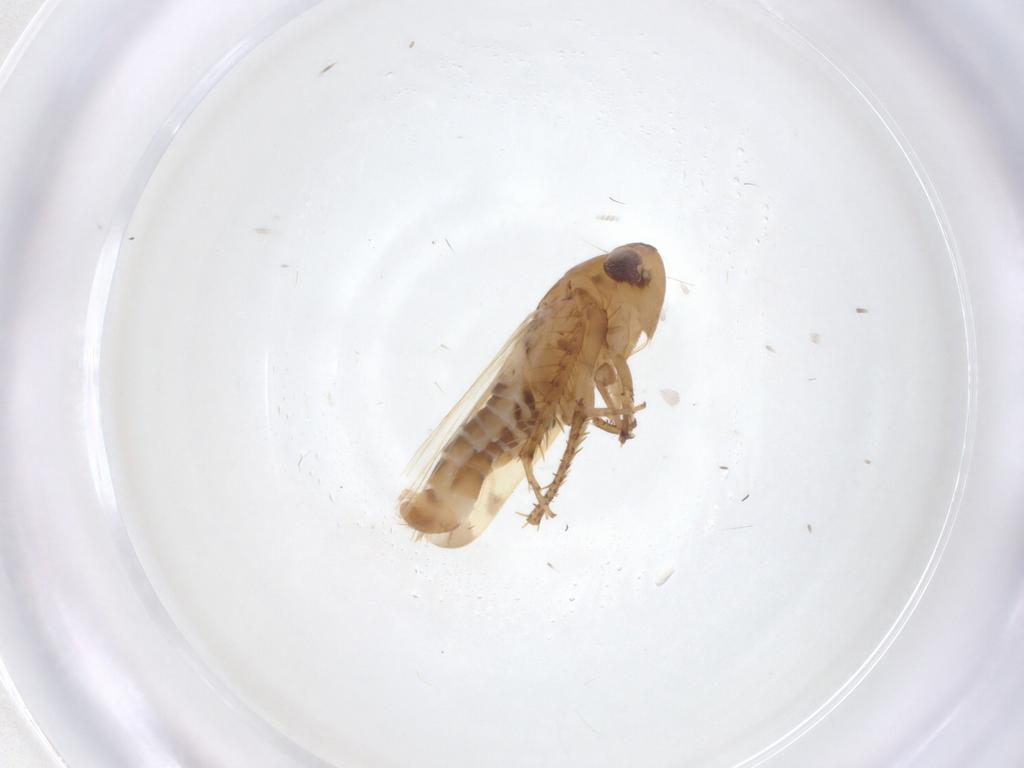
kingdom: Animalia
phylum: Arthropoda
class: Insecta
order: Hemiptera
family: Cicadellidae
